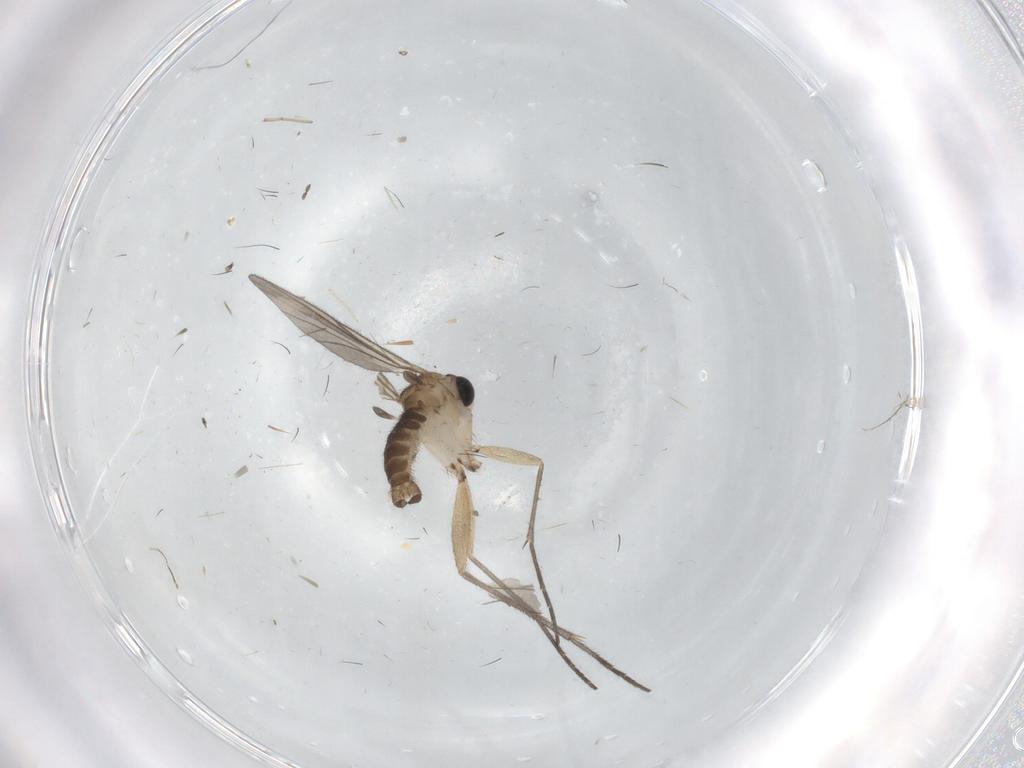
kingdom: Animalia
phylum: Arthropoda
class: Insecta
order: Diptera
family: Sciaridae
